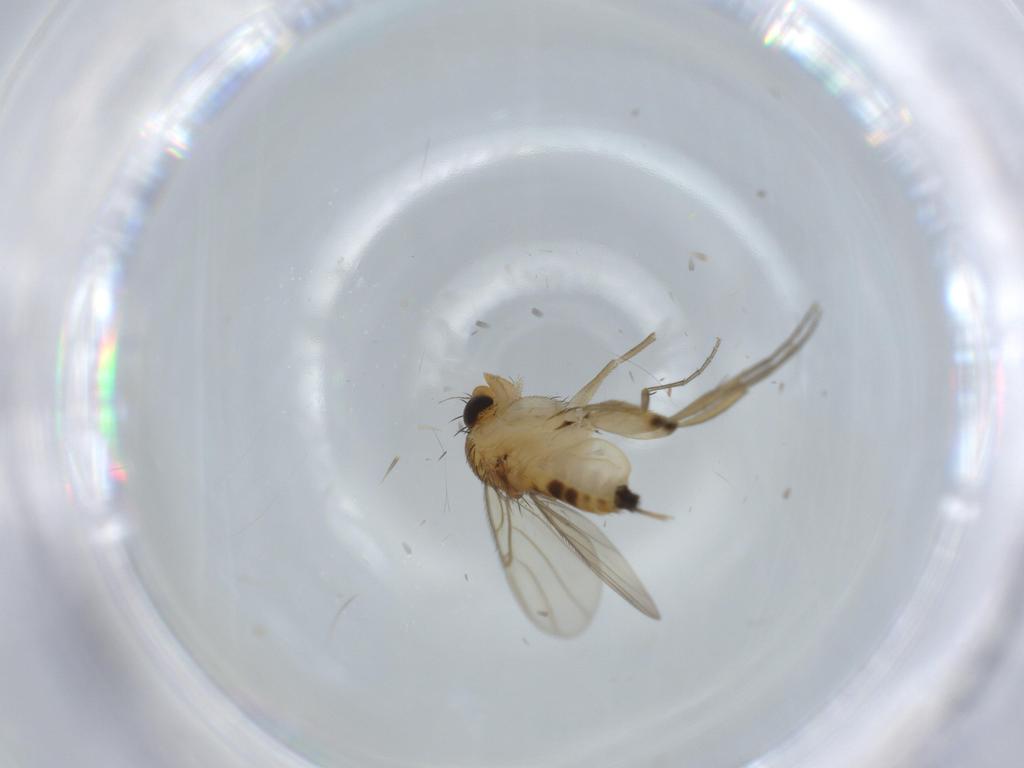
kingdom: Animalia
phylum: Arthropoda
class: Insecta
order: Diptera
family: Phoridae
